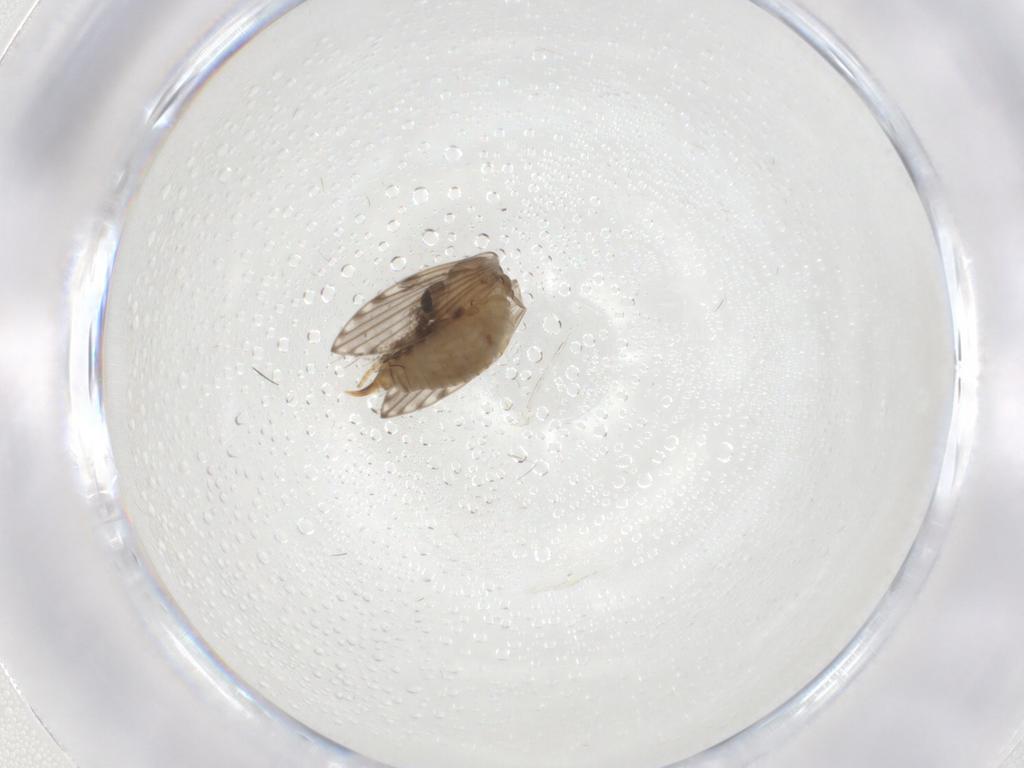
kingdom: Animalia
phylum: Arthropoda
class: Insecta
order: Diptera
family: Psychodidae
